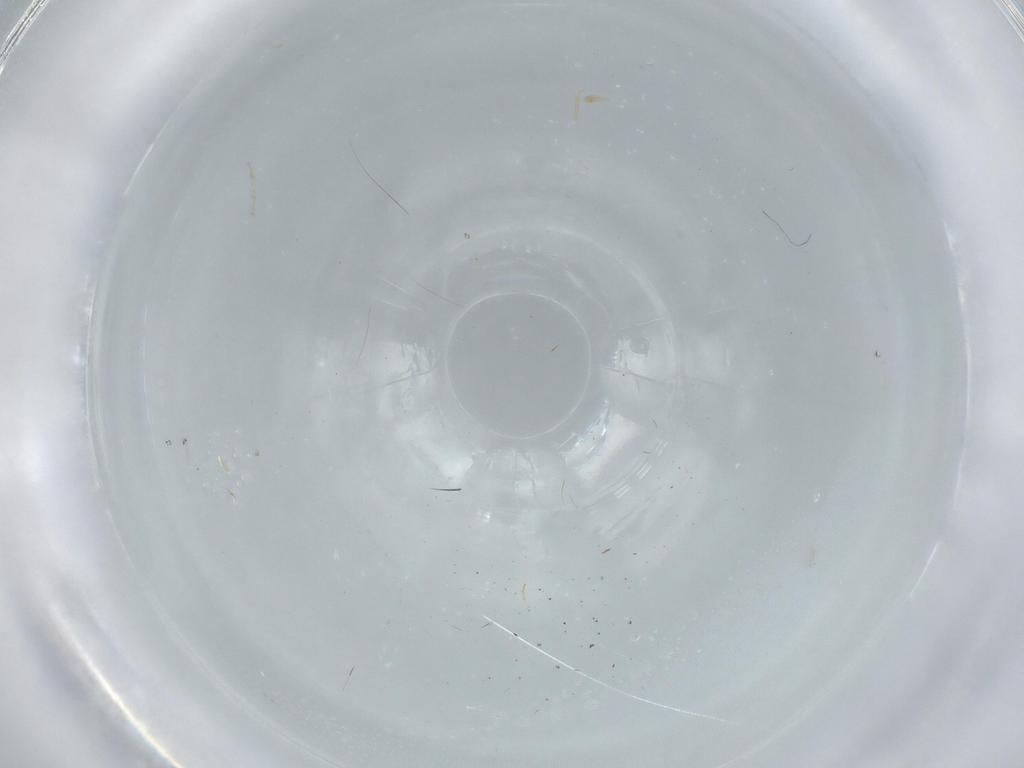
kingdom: Animalia
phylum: Arthropoda
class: Insecta
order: Diptera
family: Cecidomyiidae
